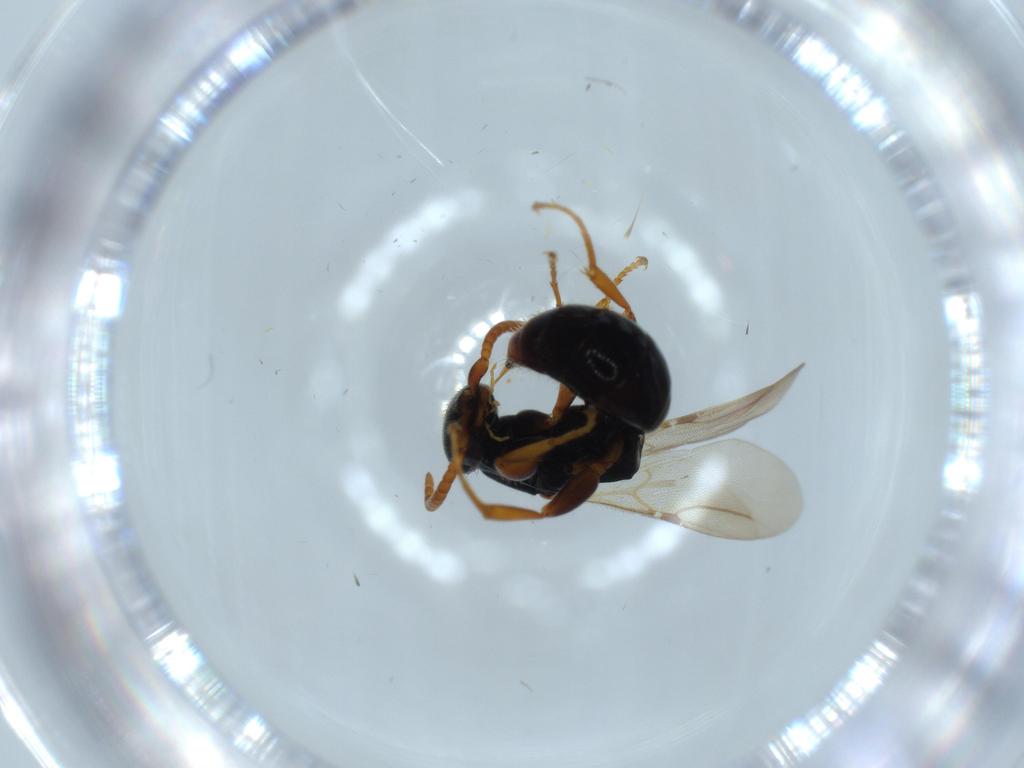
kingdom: Animalia
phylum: Arthropoda
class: Insecta
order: Hymenoptera
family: Bethylidae
